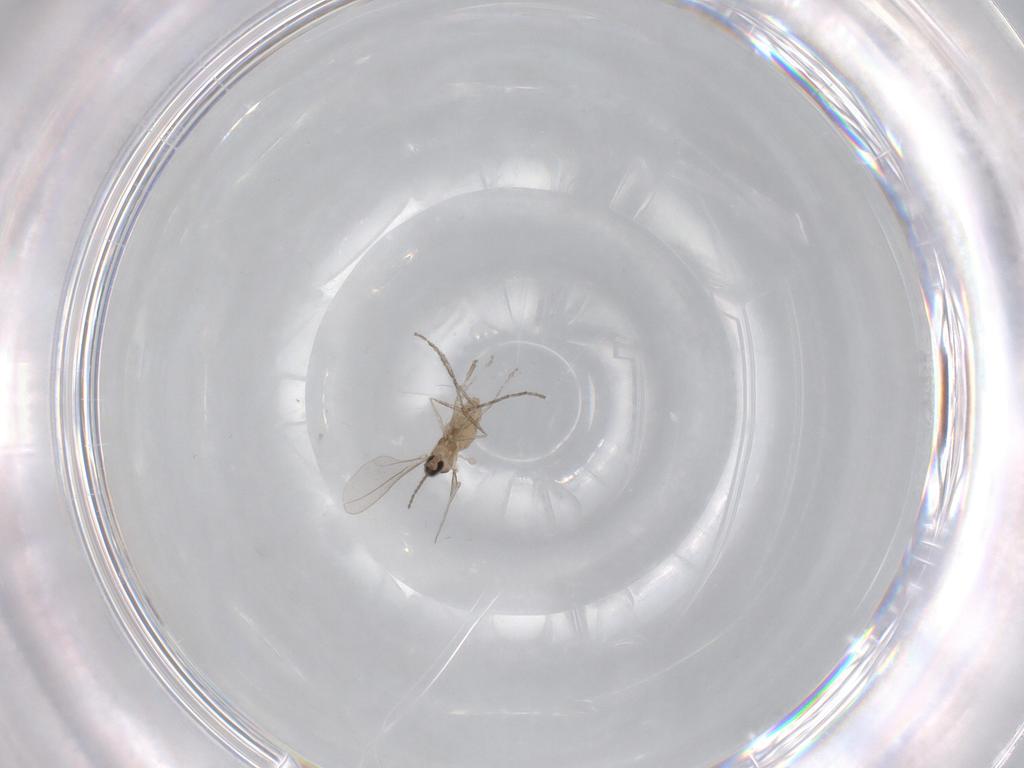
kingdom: Animalia
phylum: Arthropoda
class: Insecta
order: Diptera
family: Cecidomyiidae
